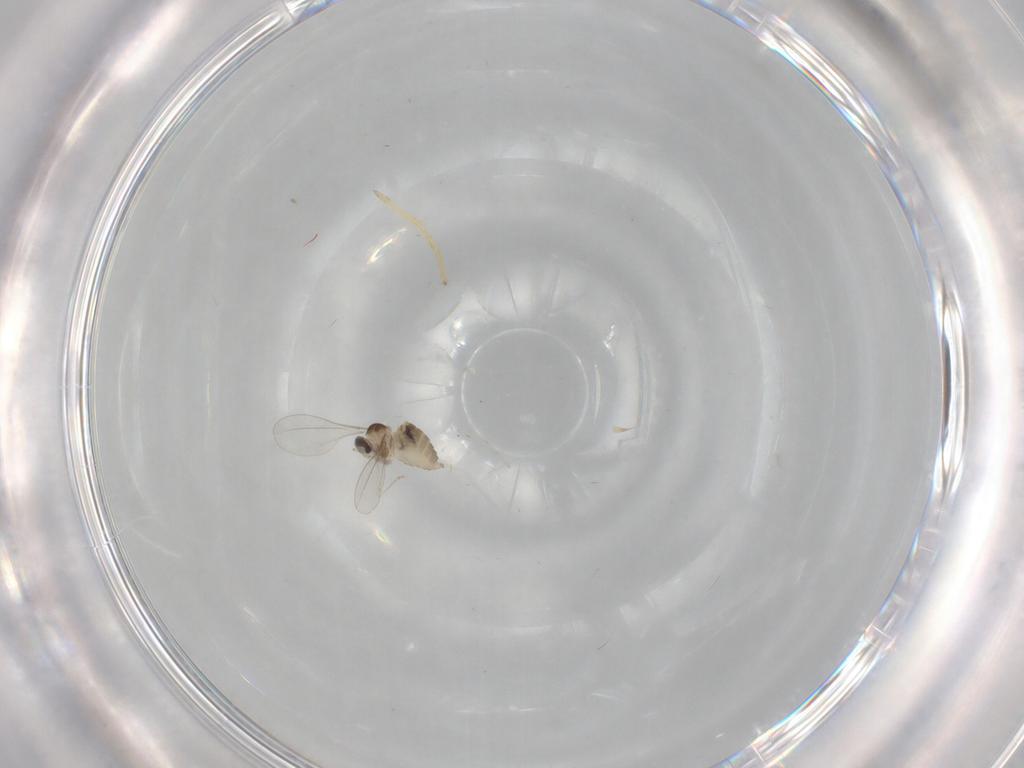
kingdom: Animalia
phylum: Arthropoda
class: Insecta
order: Diptera
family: Cecidomyiidae
